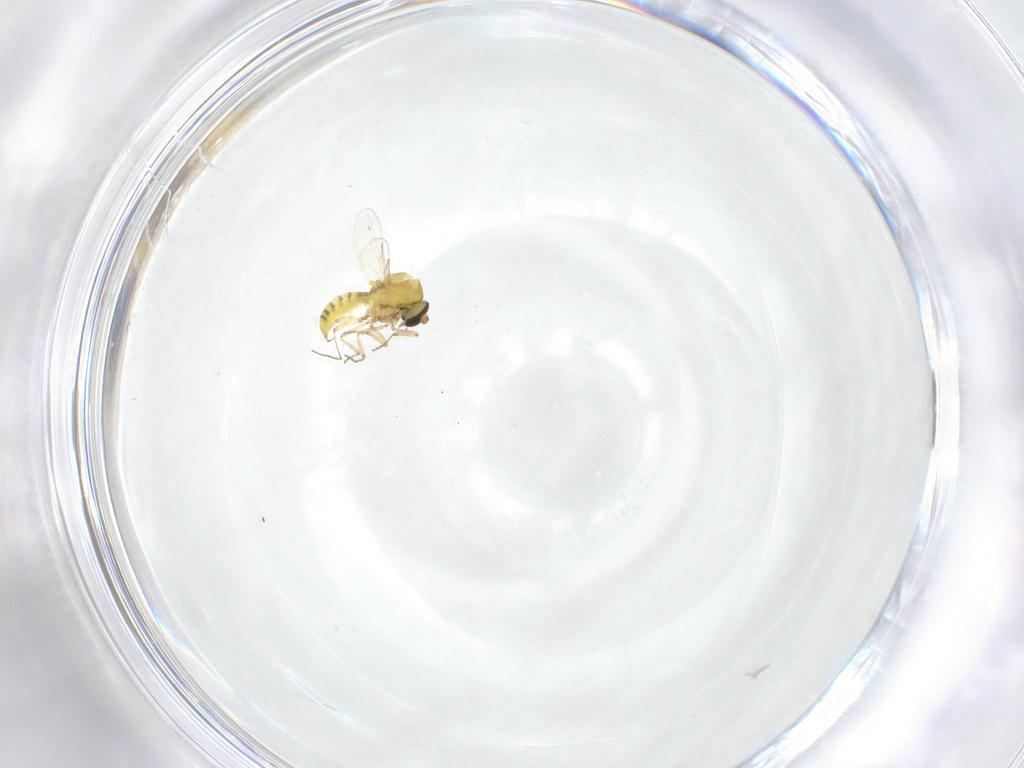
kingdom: Animalia
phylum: Arthropoda
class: Insecta
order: Diptera
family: Ceratopogonidae
